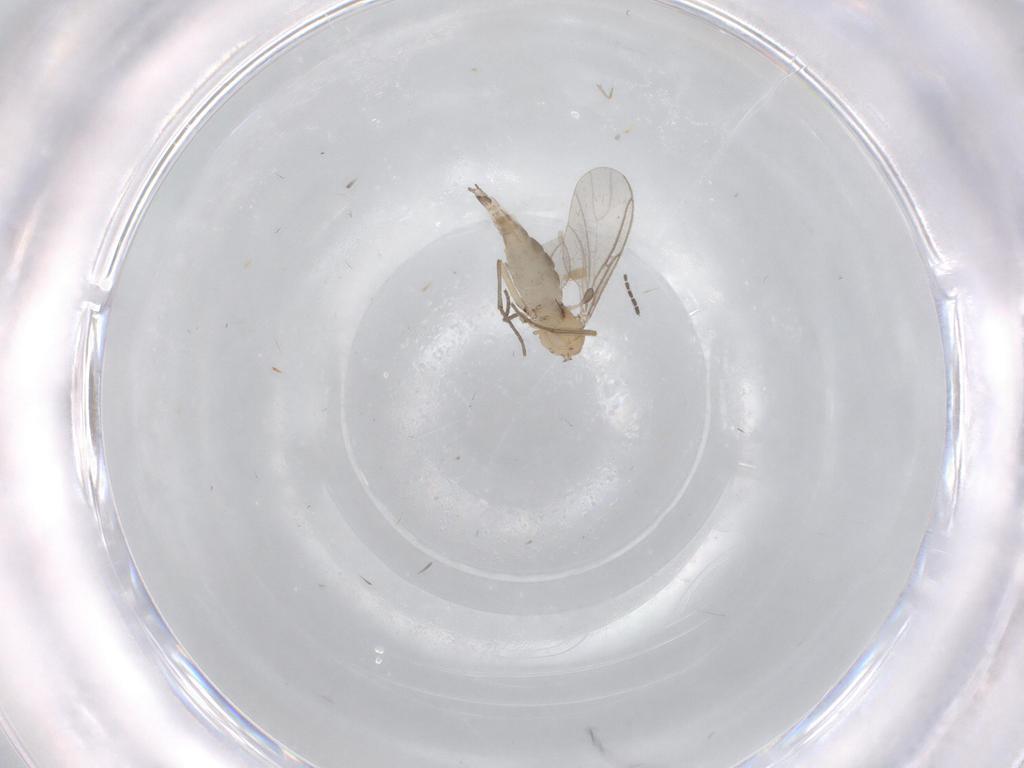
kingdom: Animalia
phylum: Arthropoda
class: Insecta
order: Diptera
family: Sciaridae
